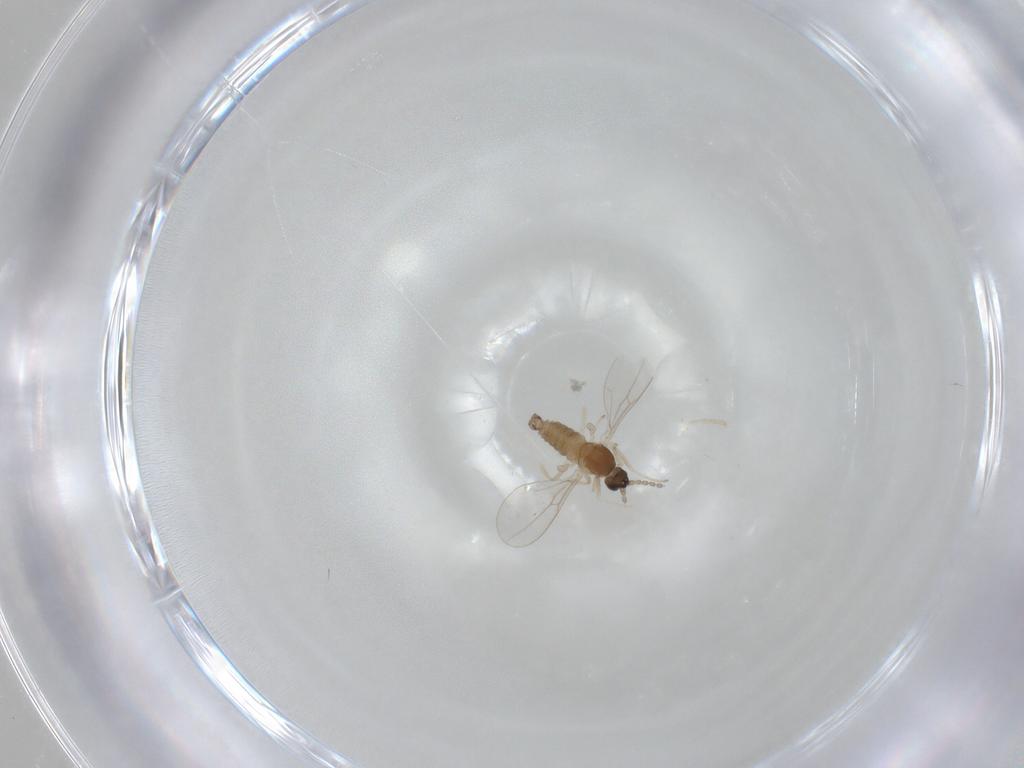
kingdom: Animalia
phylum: Arthropoda
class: Insecta
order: Diptera
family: Cecidomyiidae
